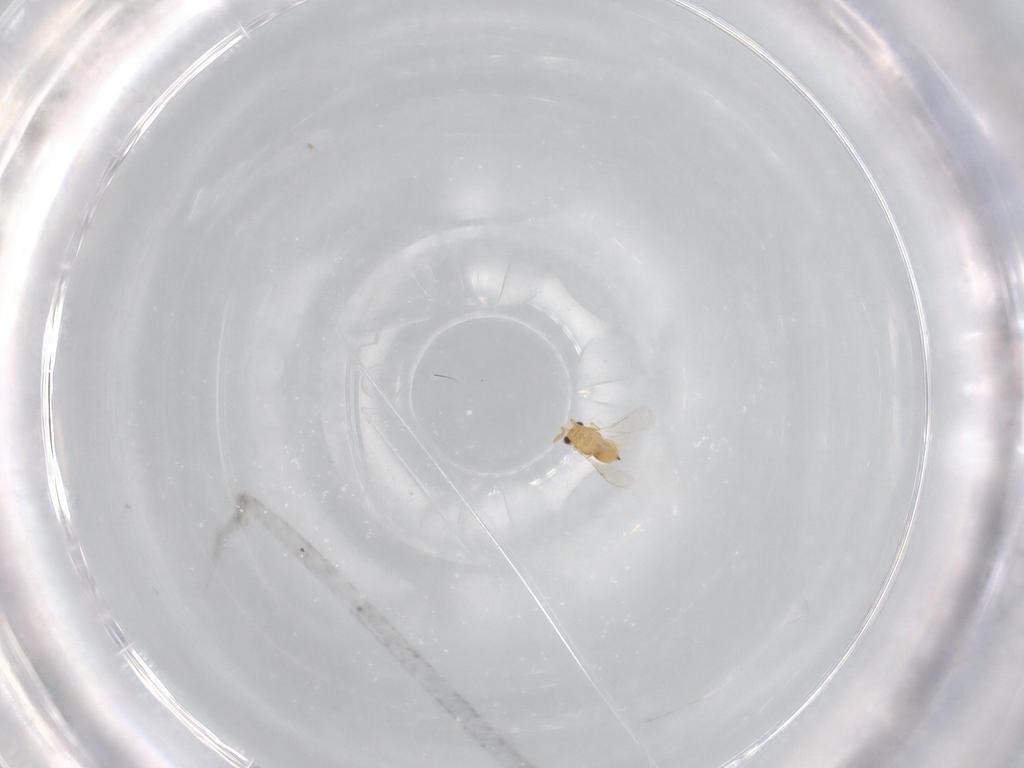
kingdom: Animalia
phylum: Arthropoda
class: Insecta
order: Hymenoptera
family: Aphelinidae
